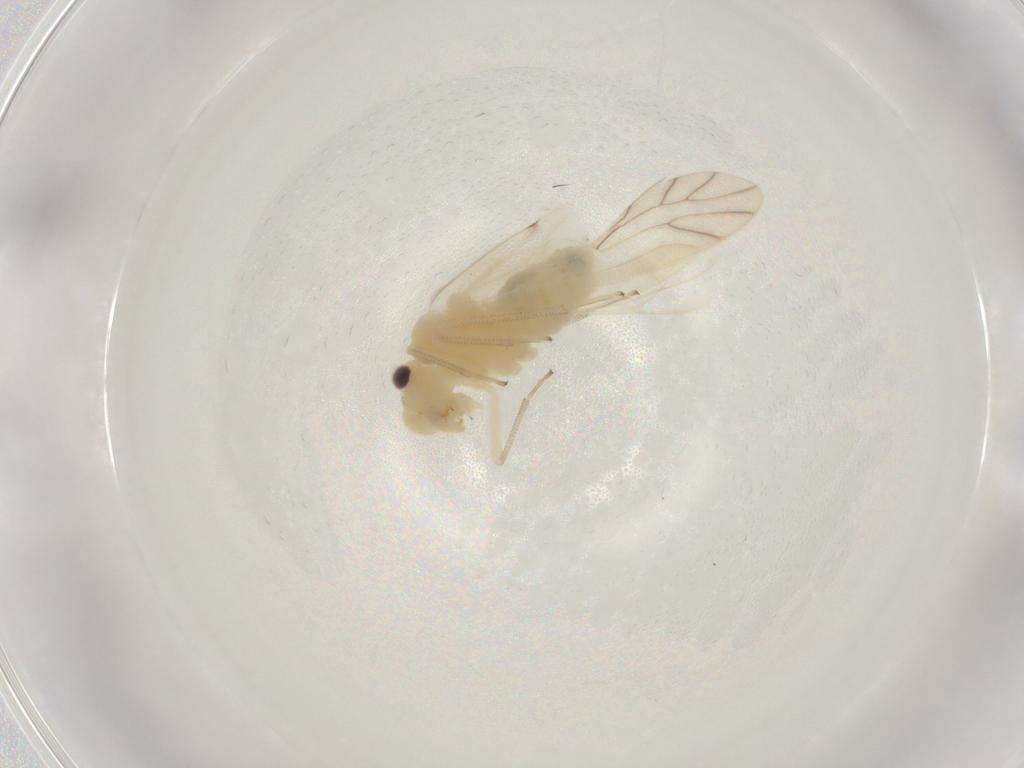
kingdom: Animalia
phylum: Arthropoda
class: Insecta
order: Psocodea
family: Caeciliusidae
